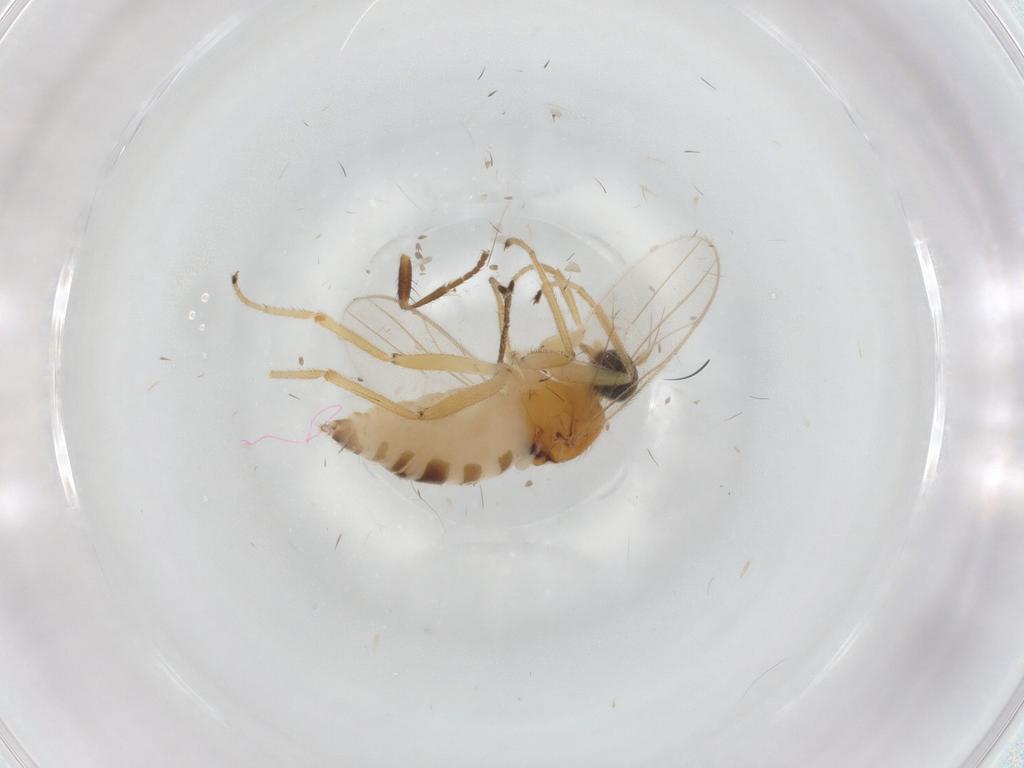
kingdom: Animalia
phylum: Arthropoda
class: Insecta
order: Diptera
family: Hybotidae
